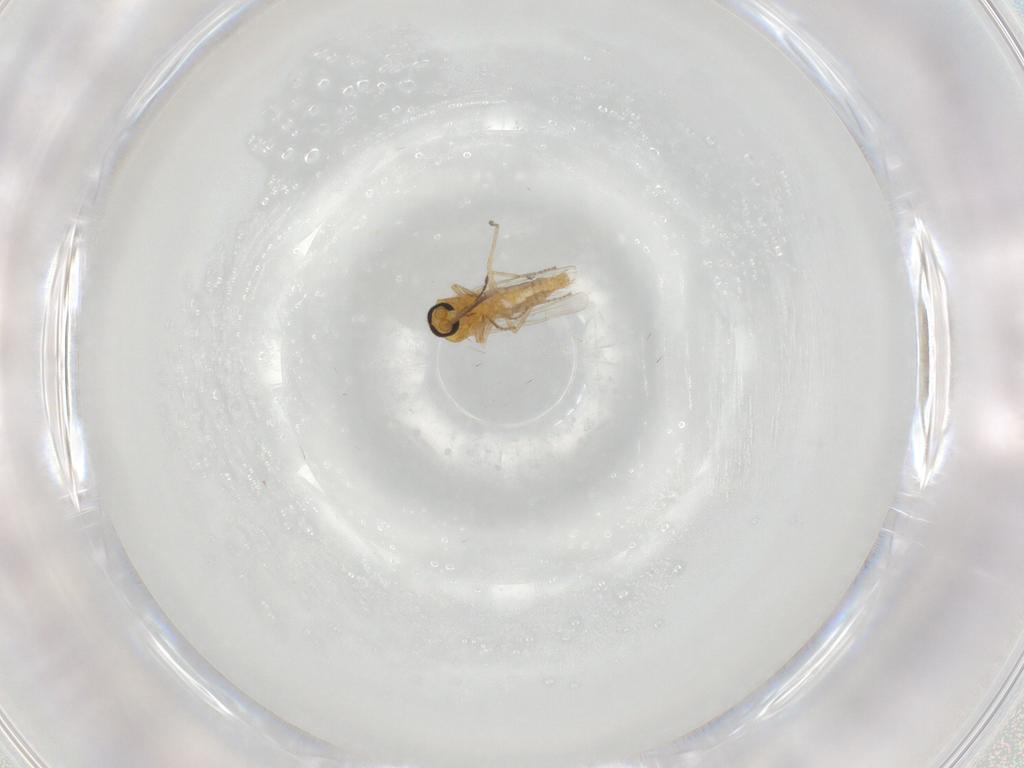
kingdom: Animalia
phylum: Arthropoda
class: Insecta
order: Diptera
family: Ceratopogonidae
